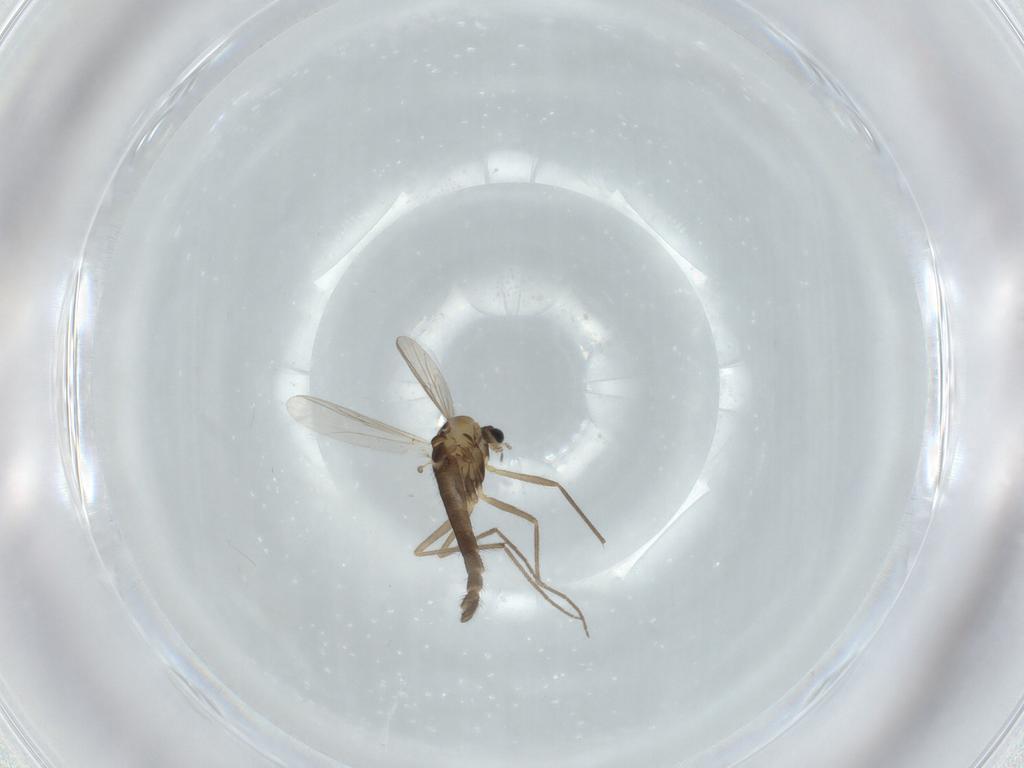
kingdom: Animalia
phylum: Arthropoda
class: Insecta
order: Diptera
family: Chironomidae
